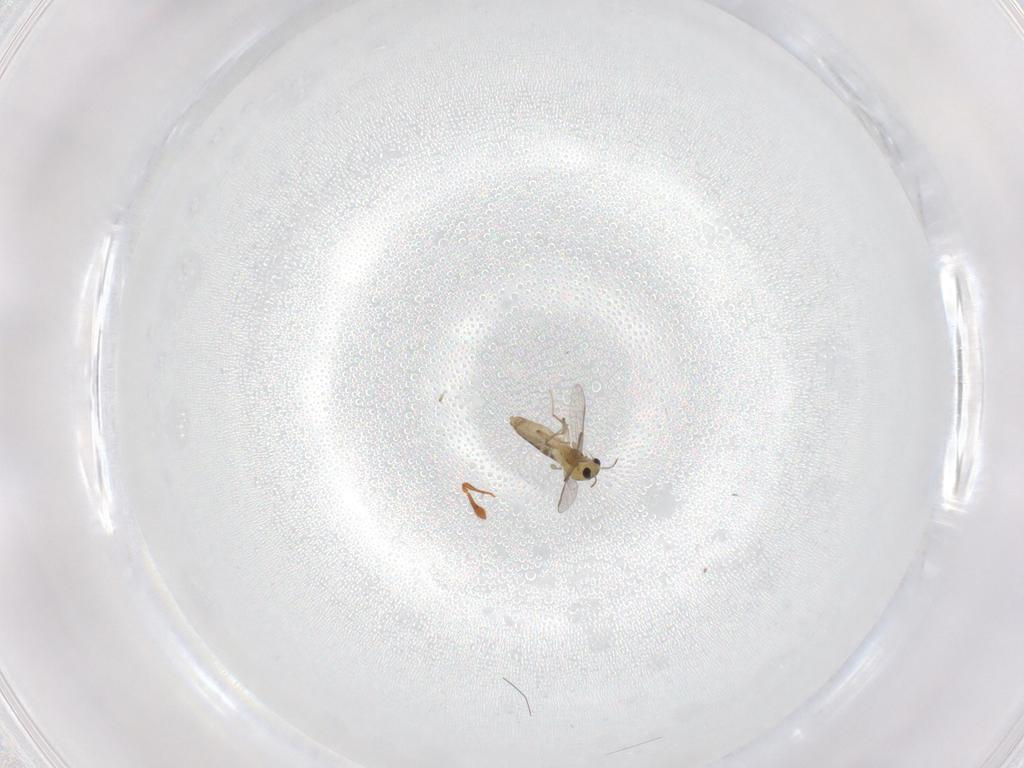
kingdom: Animalia
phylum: Arthropoda
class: Insecta
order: Diptera
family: Chironomidae
